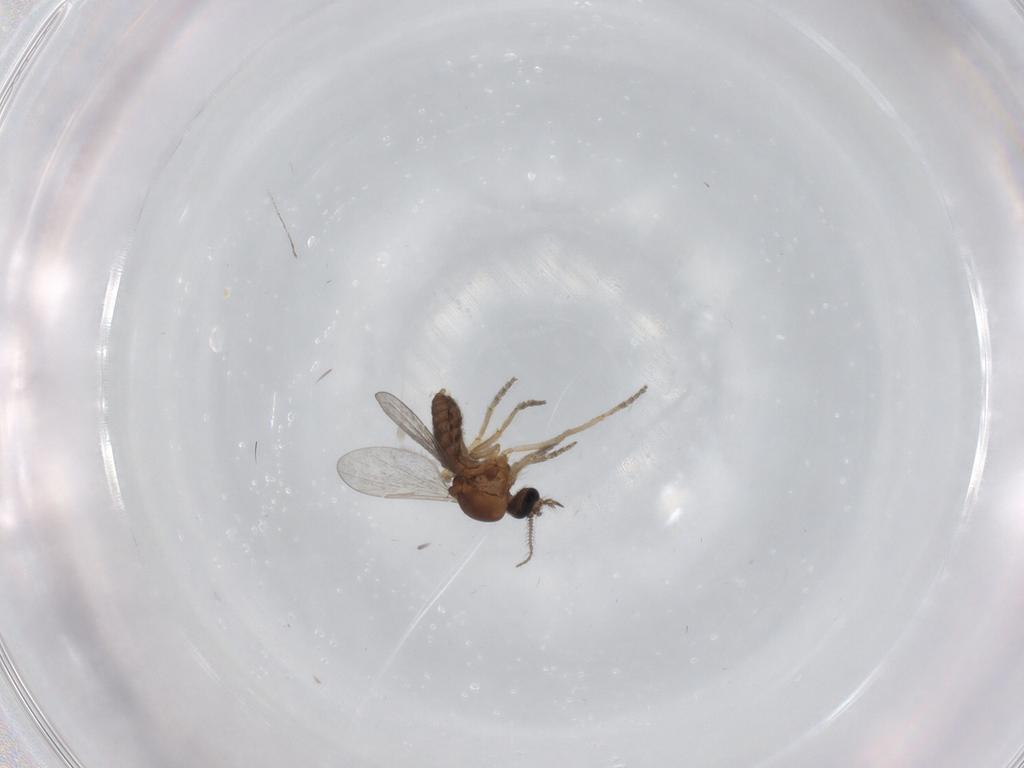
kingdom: Animalia
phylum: Arthropoda
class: Insecta
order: Diptera
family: Ceratopogonidae
